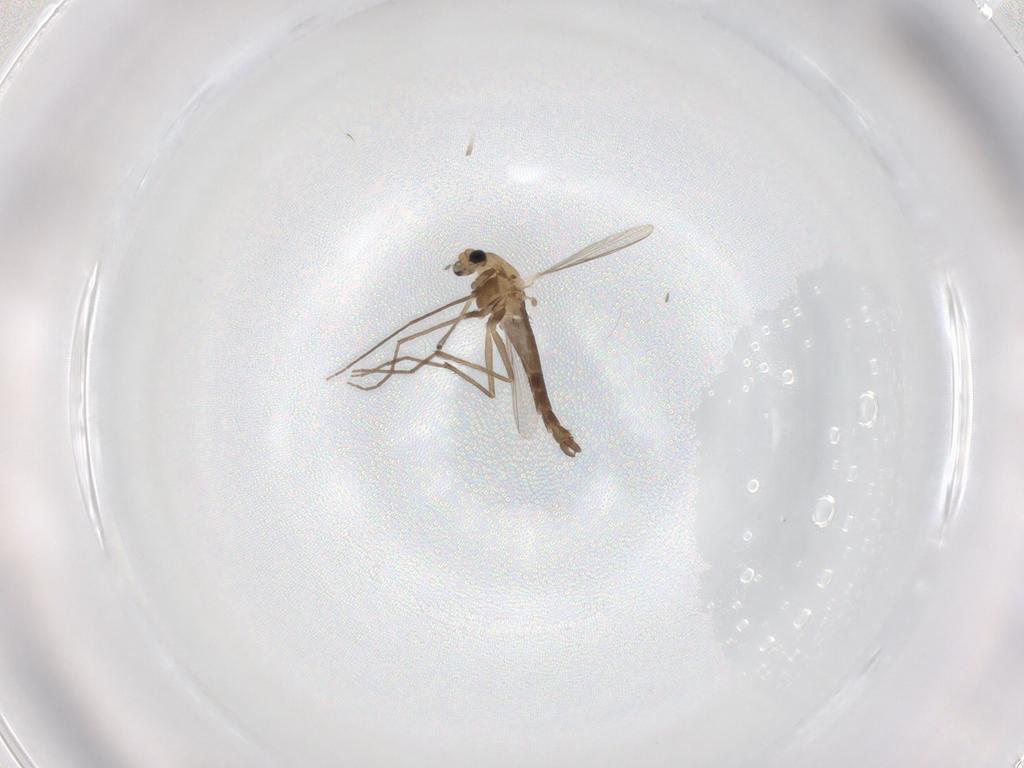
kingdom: Animalia
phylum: Arthropoda
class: Insecta
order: Diptera
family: Chironomidae
